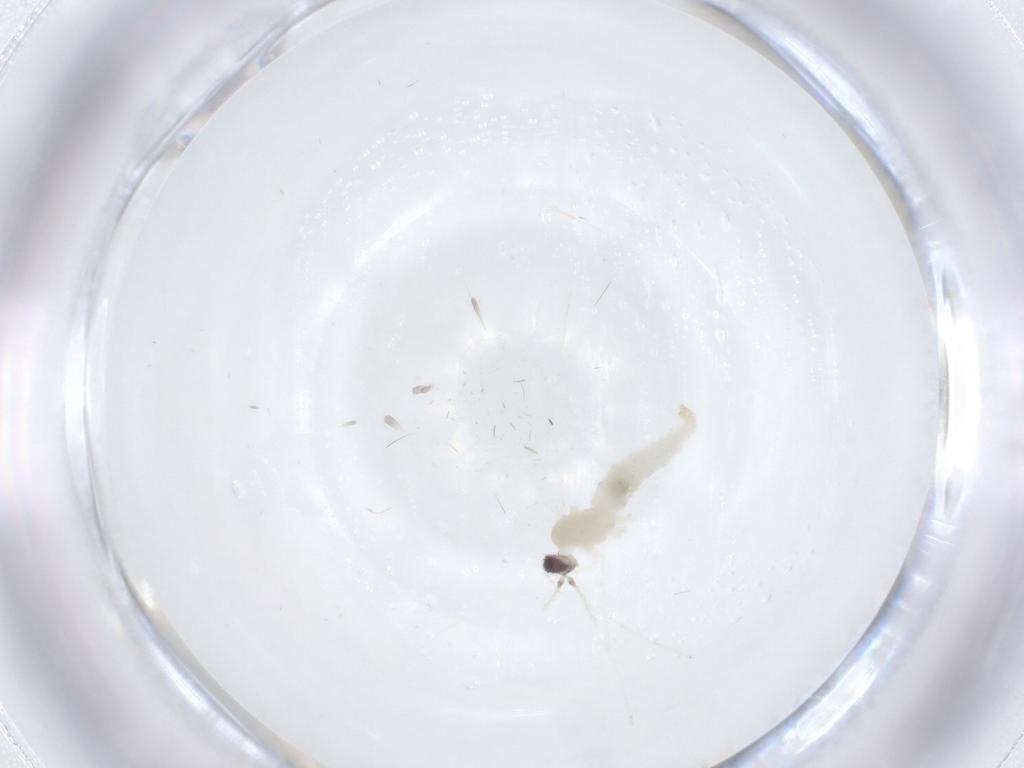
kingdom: Animalia
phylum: Arthropoda
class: Insecta
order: Diptera
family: Cecidomyiidae
